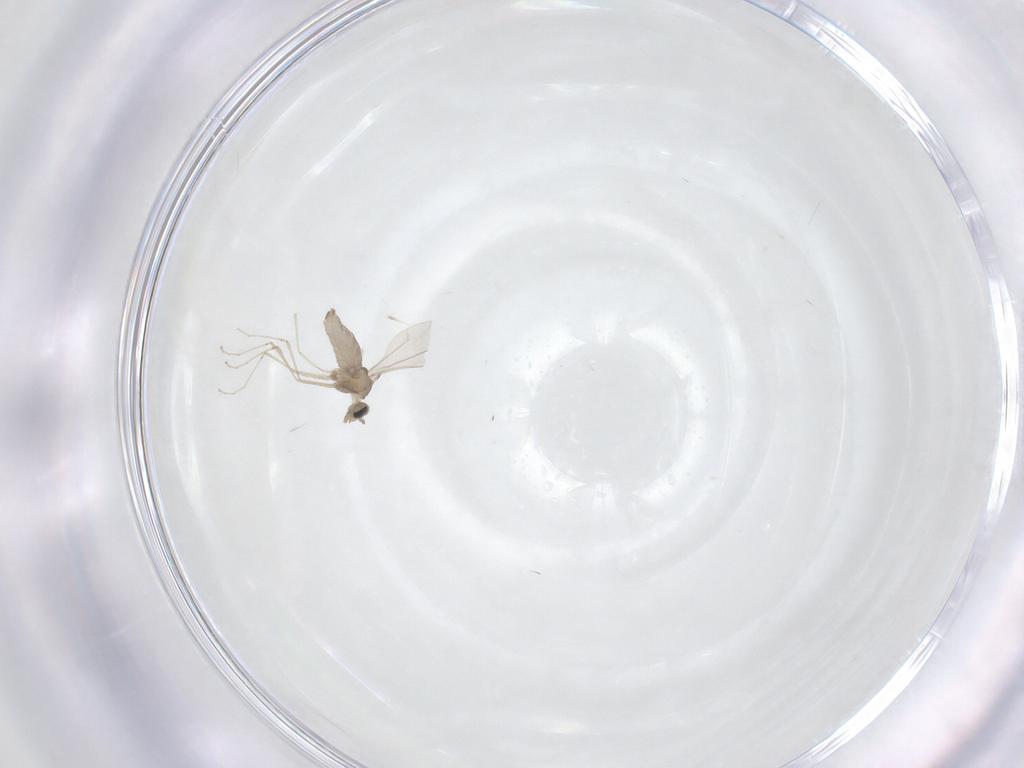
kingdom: Animalia
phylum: Arthropoda
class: Insecta
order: Diptera
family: Cecidomyiidae
